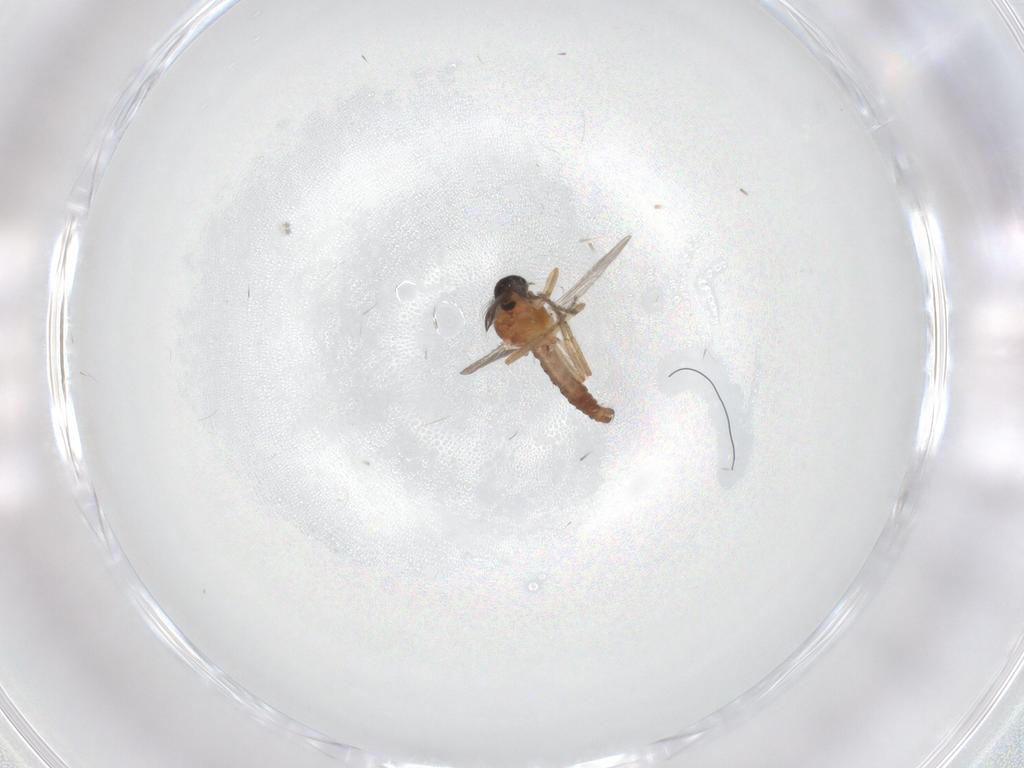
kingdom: Animalia
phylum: Arthropoda
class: Insecta
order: Diptera
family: Ceratopogonidae
